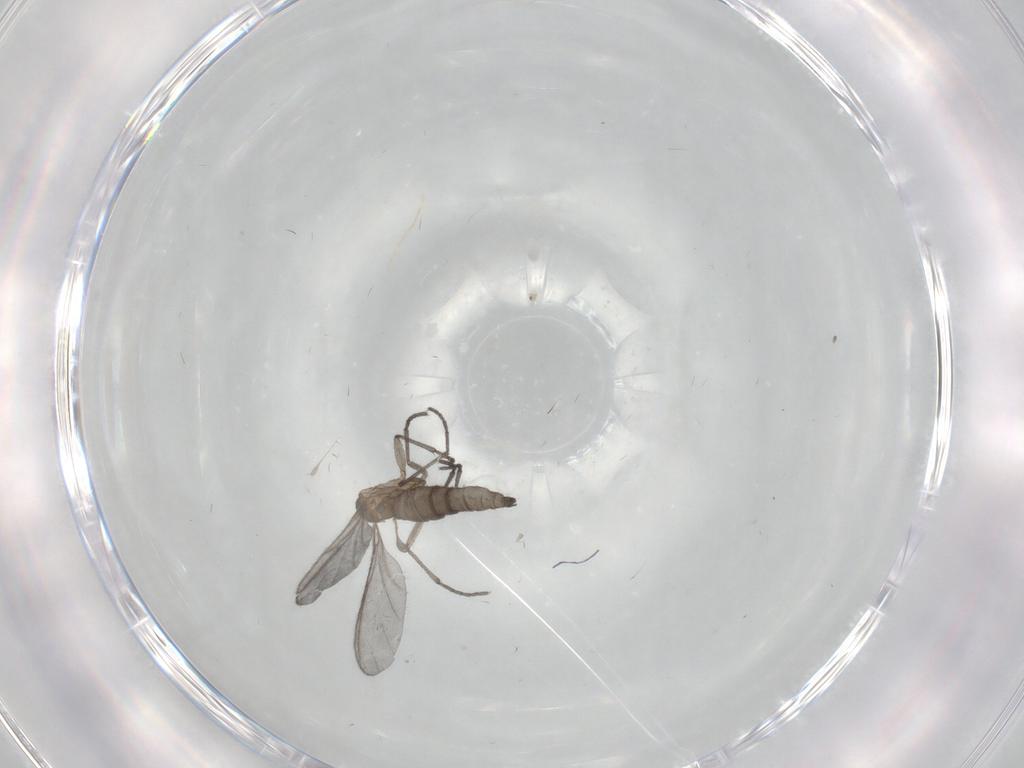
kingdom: Animalia
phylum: Arthropoda
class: Insecta
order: Diptera
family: Sciaridae
